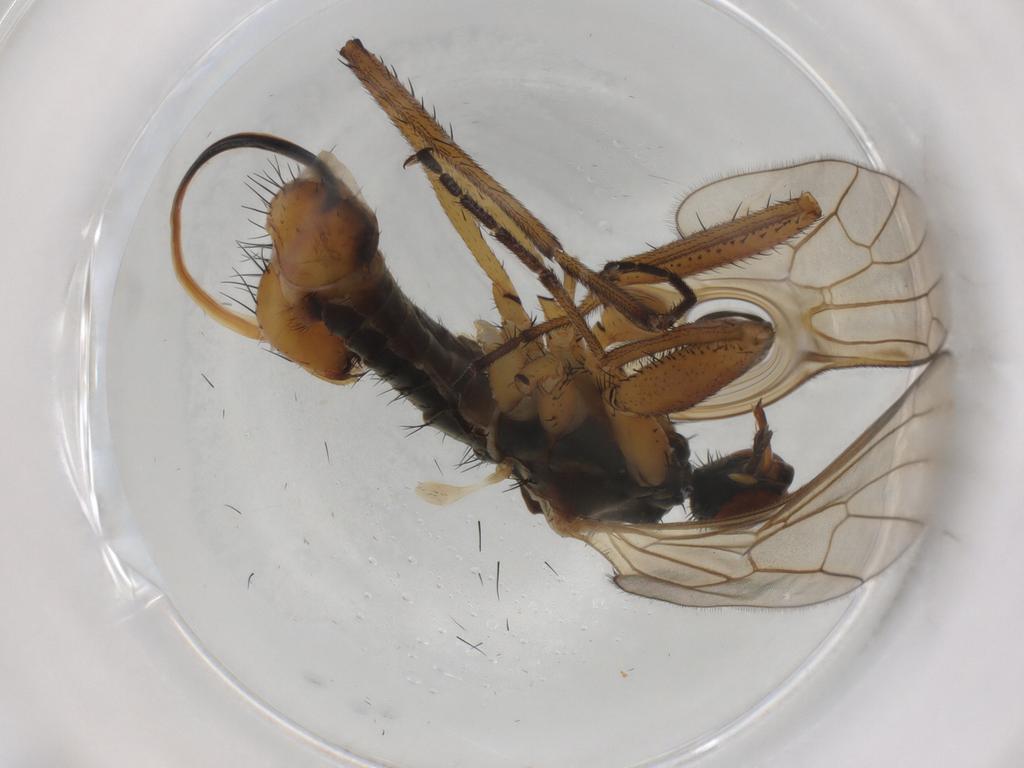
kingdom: Animalia
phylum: Arthropoda
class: Insecta
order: Diptera
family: Empididae
